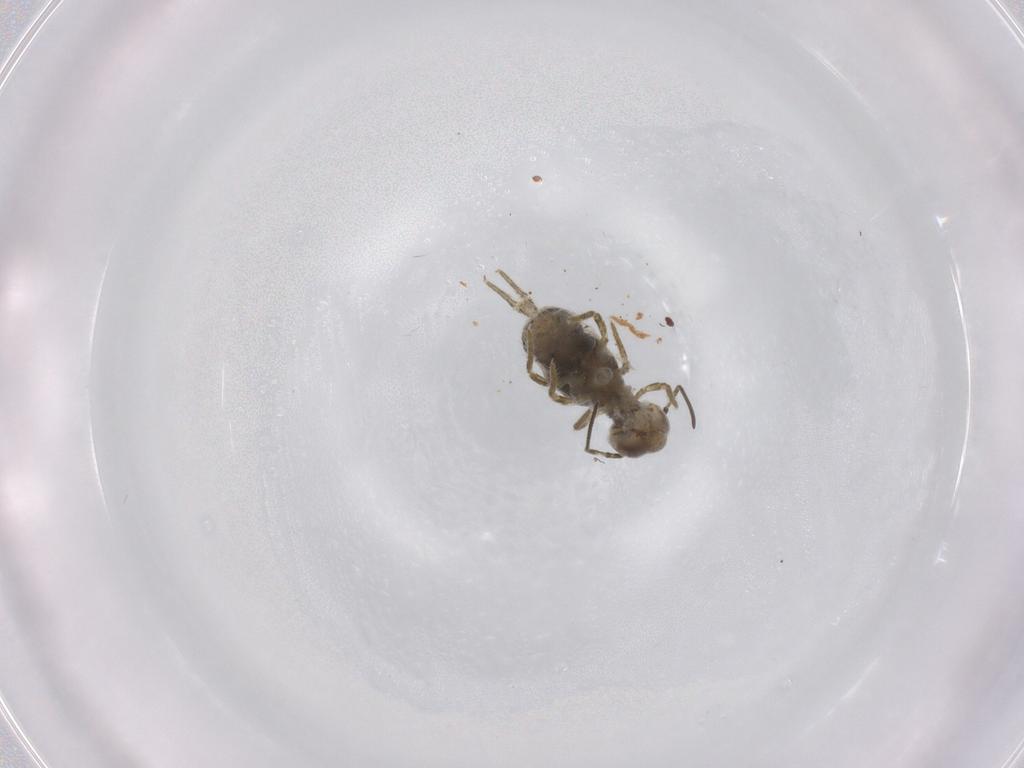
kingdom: Animalia
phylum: Arthropoda
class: Collembola
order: Symphypleona
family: Sminthuridae
